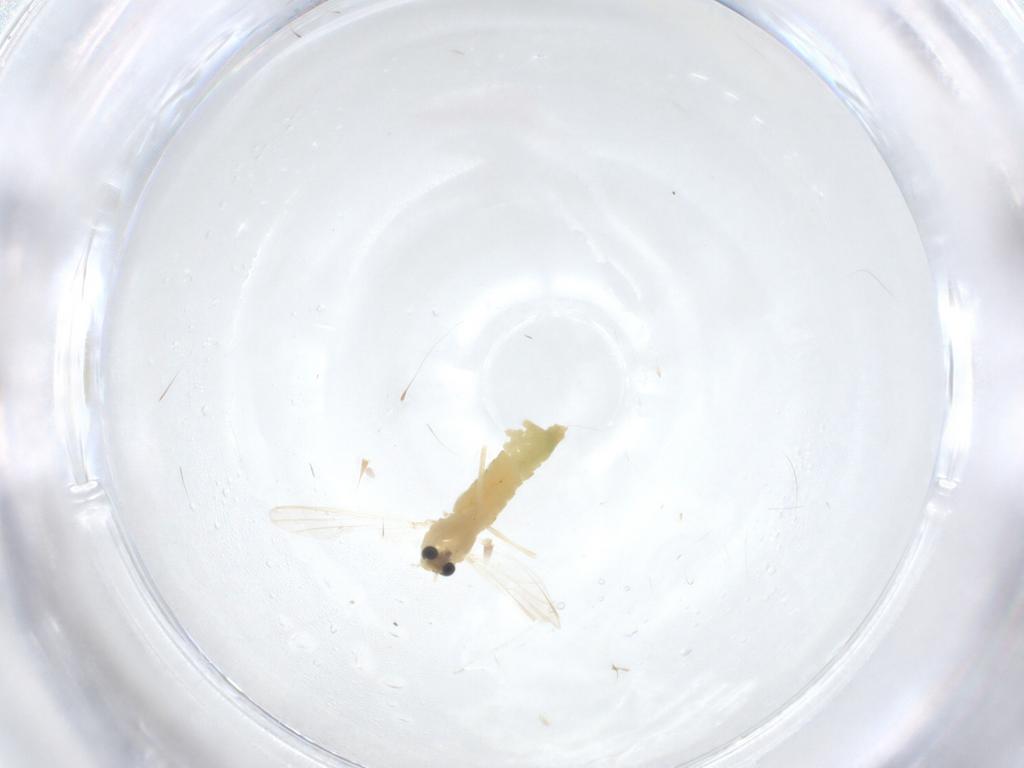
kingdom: Animalia
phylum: Arthropoda
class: Insecta
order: Diptera
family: Chironomidae
